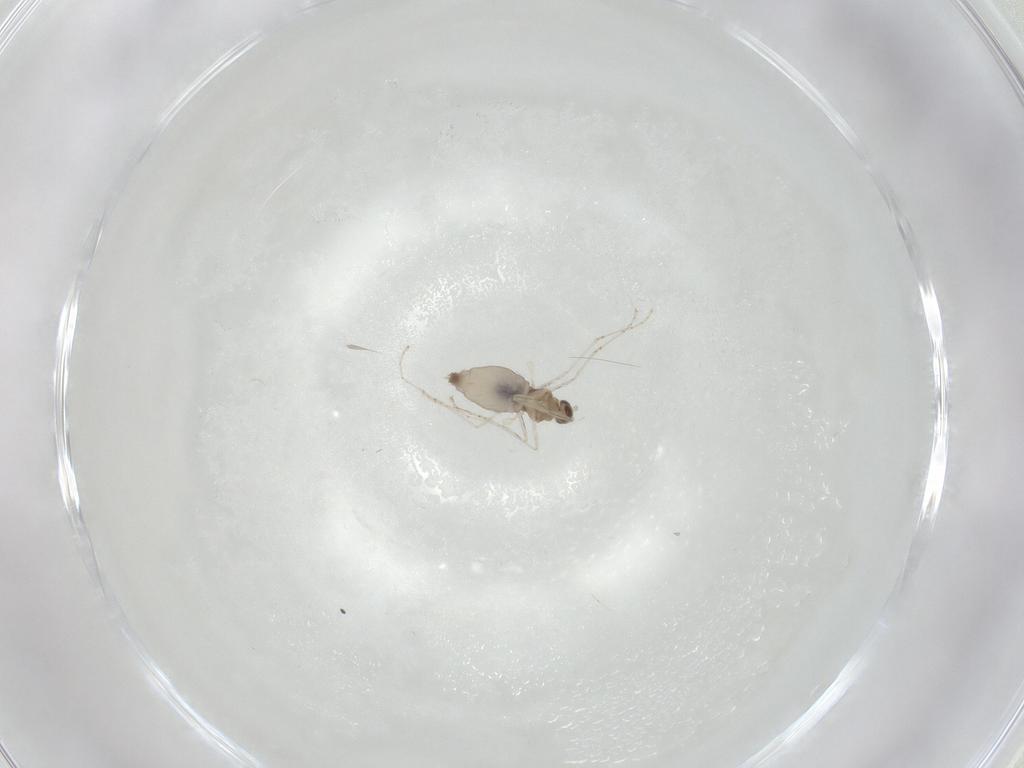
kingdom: Animalia
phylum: Arthropoda
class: Insecta
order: Diptera
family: Cecidomyiidae
